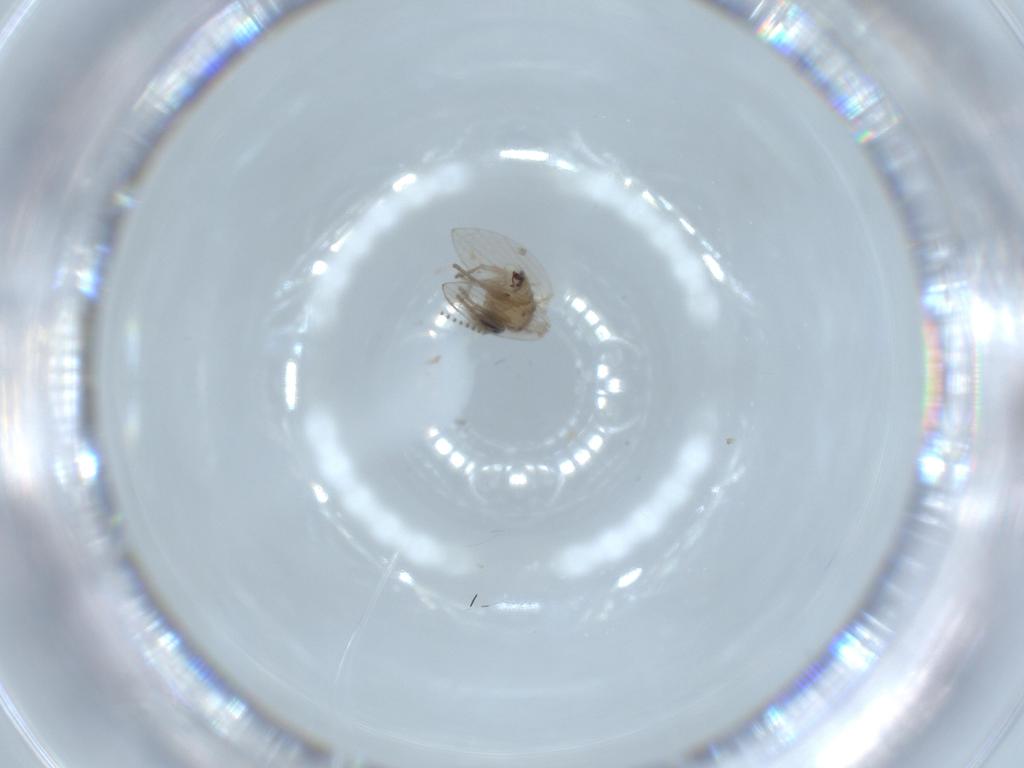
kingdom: Animalia
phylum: Arthropoda
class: Insecta
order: Diptera
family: Psychodidae
